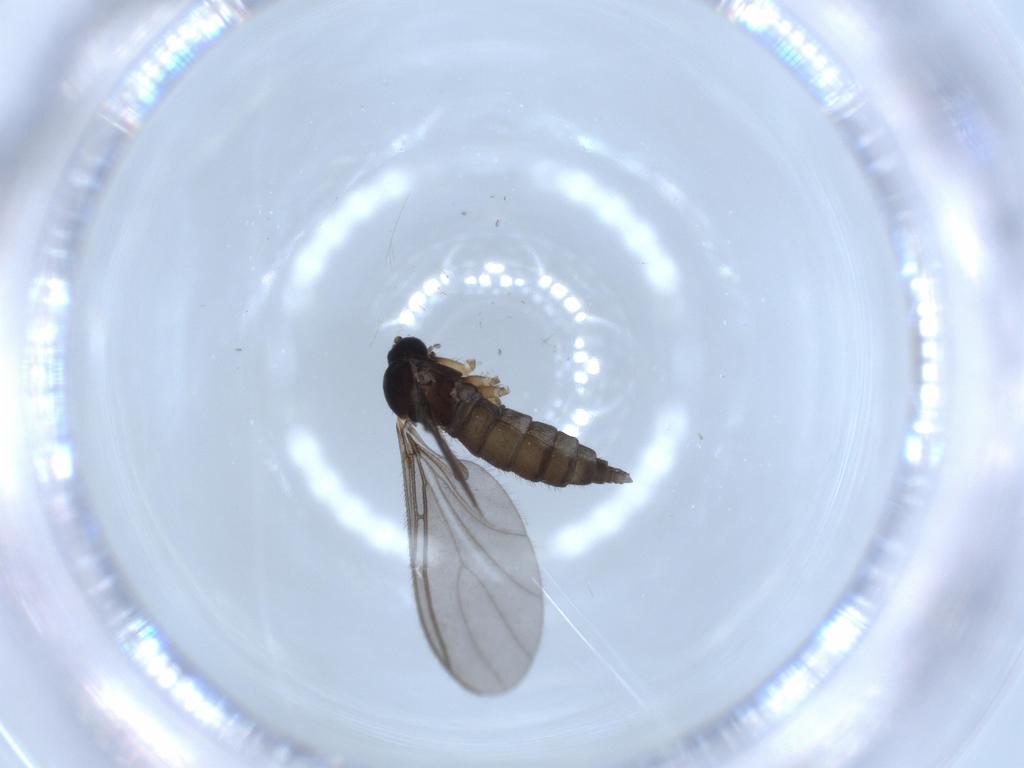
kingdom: Animalia
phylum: Arthropoda
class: Insecta
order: Diptera
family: Sciaridae
